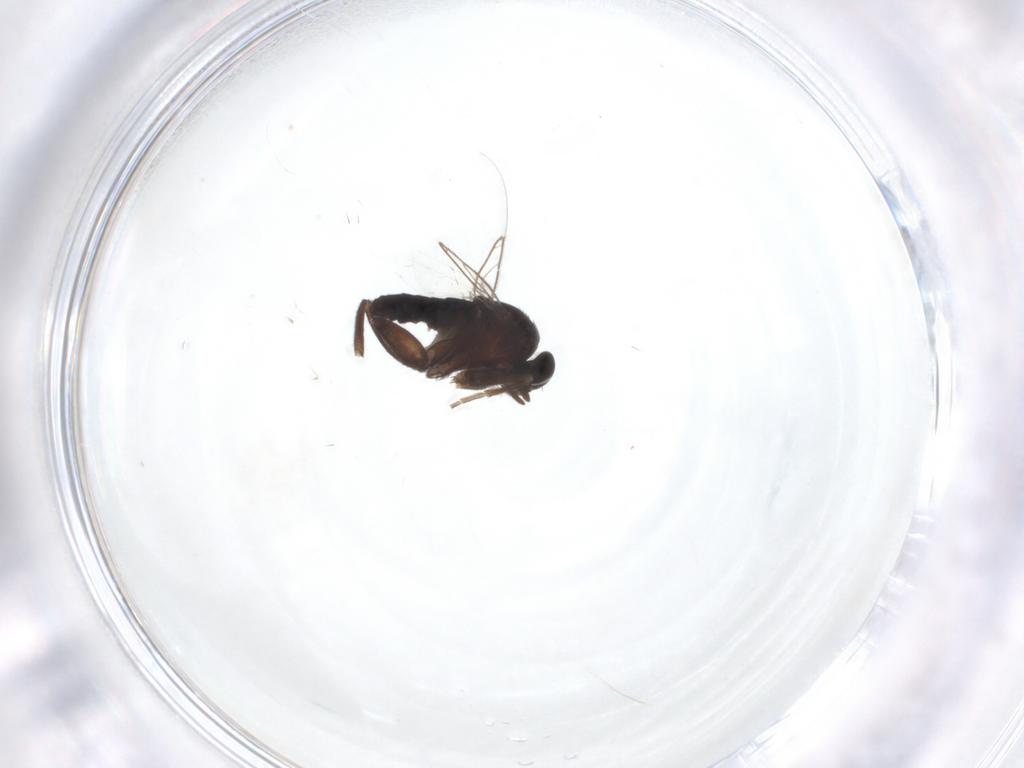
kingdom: Animalia
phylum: Arthropoda
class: Insecta
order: Diptera
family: Phoridae
